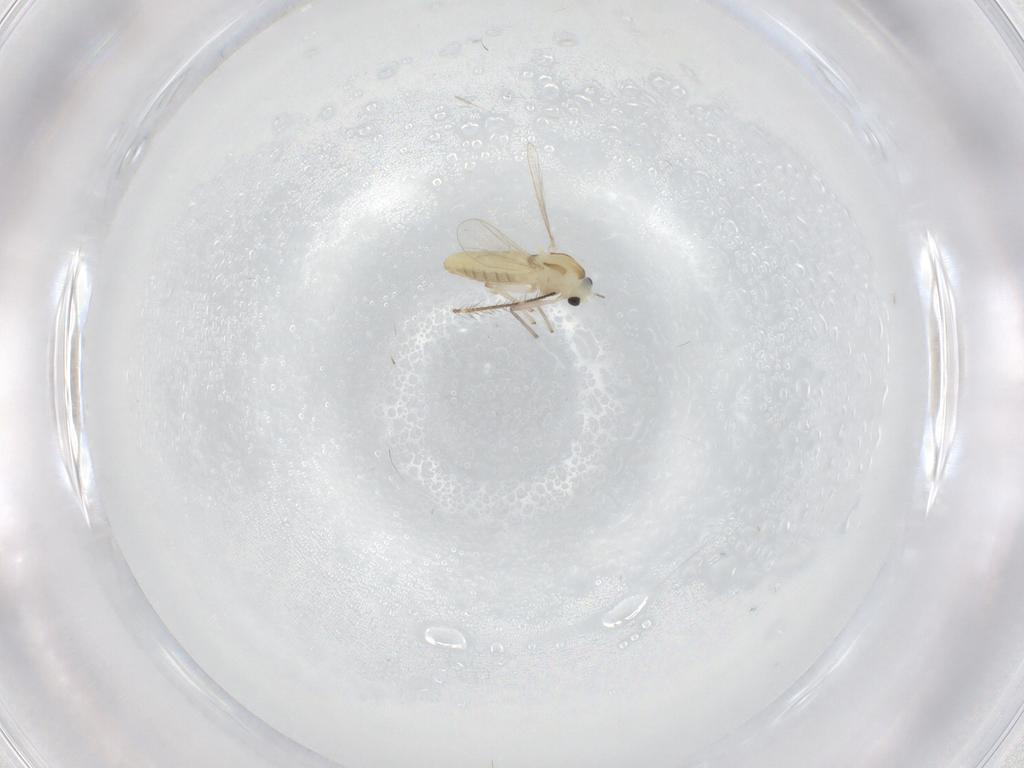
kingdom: Animalia
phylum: Arthropoda
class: Insecta
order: Diptera
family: Chironomidae
